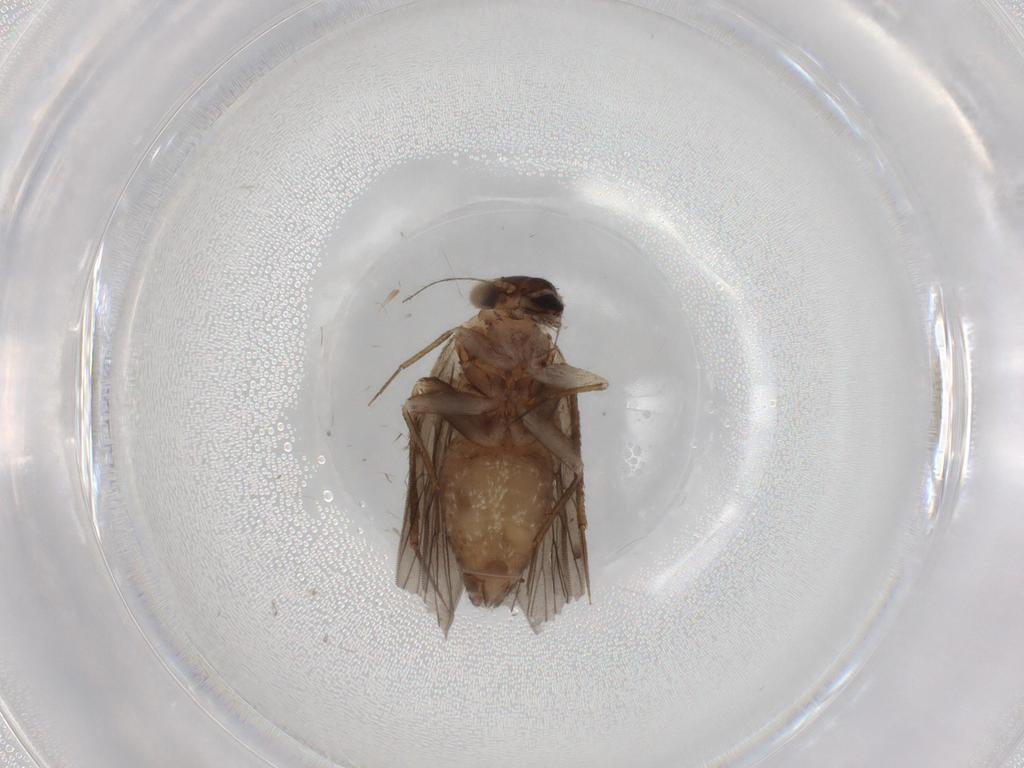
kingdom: Animalia
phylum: Arthropoda
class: Insecta
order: Psocodea
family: Lepidopsocidae
